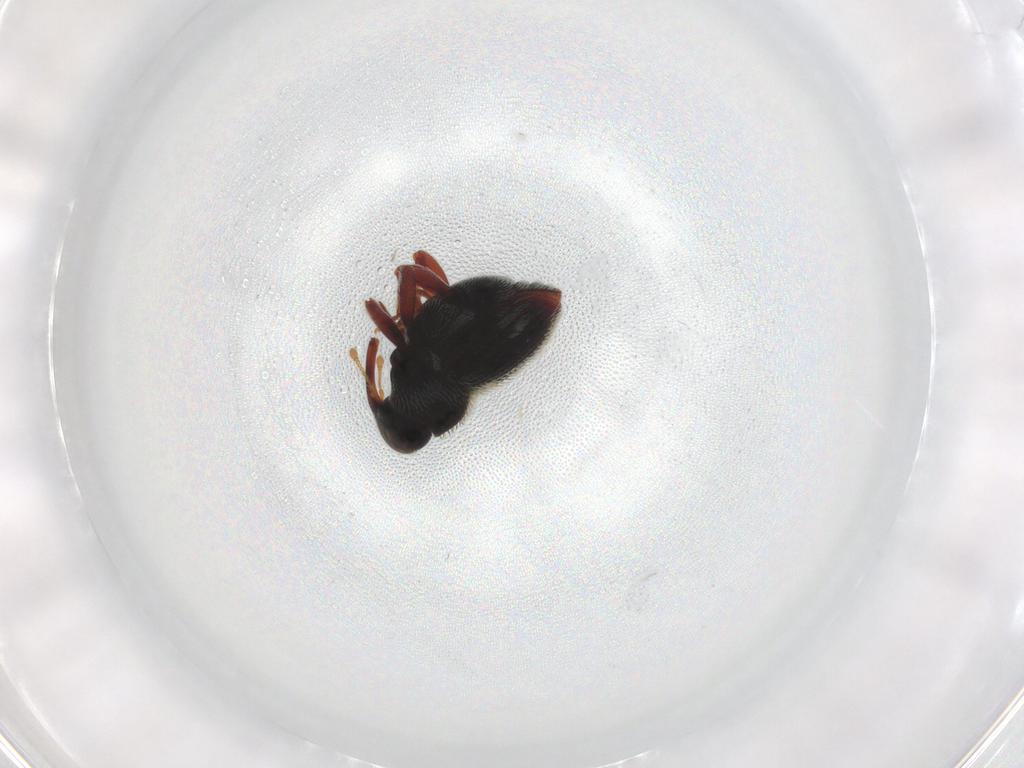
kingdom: Animalia
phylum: Arthropoda
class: Insecta
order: Coleoptera
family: Curculionidae
